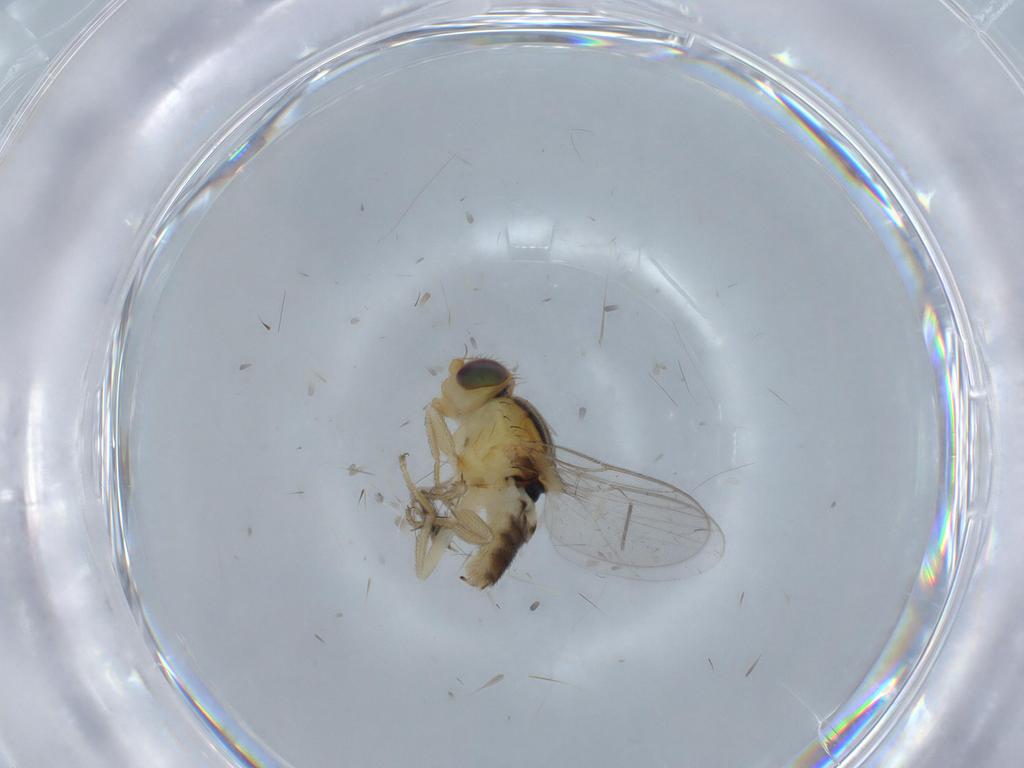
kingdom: Animalia
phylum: Arthropoda
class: Insecta
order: Diptera
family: Chloropidae
